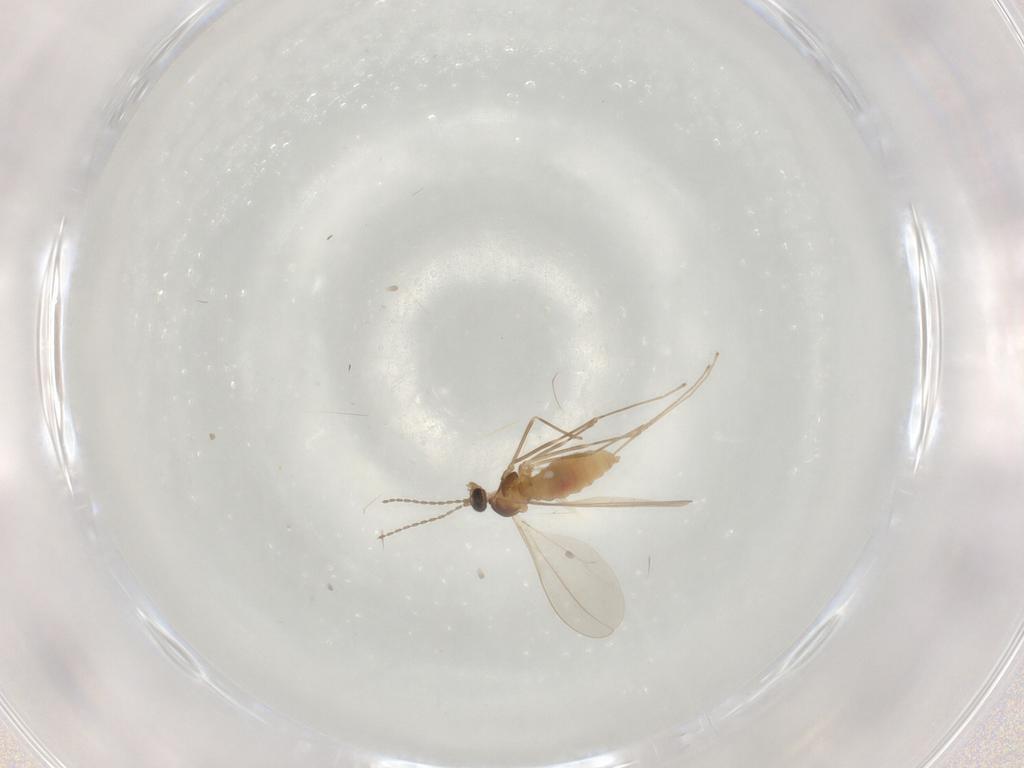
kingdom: Animalia
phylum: Arthropoda
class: Insecta
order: Diptera
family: Cecidomyiidae
